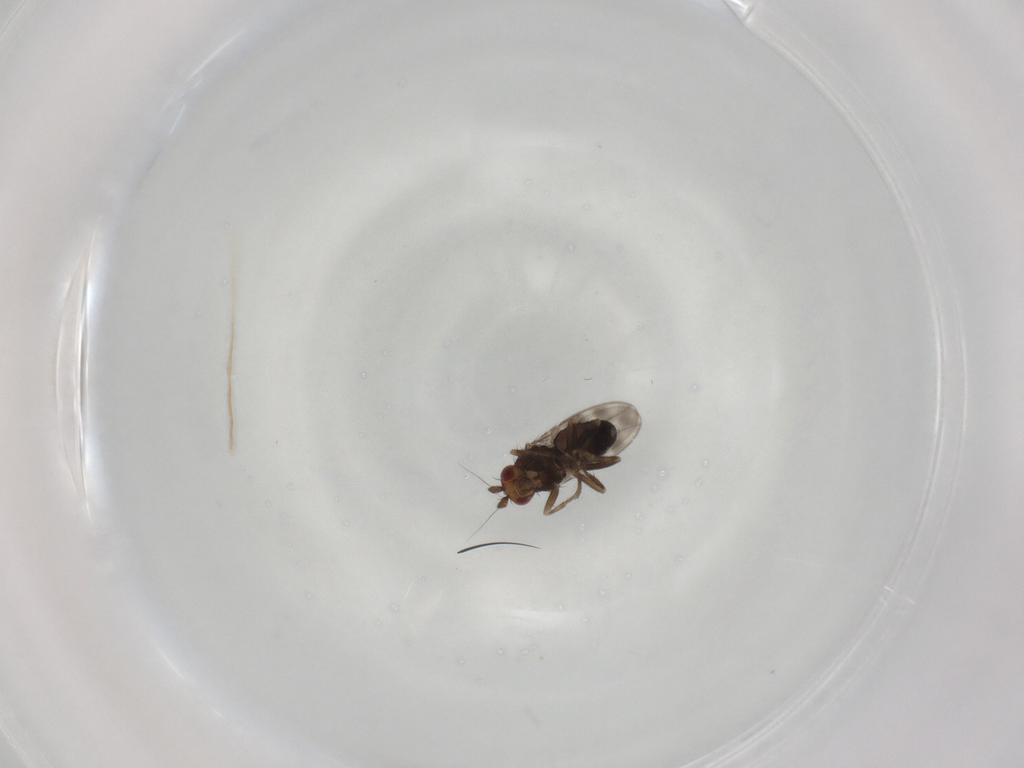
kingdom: Animalia
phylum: Arthropoda
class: Insecta
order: Diptera
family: Sphaeroceridae
